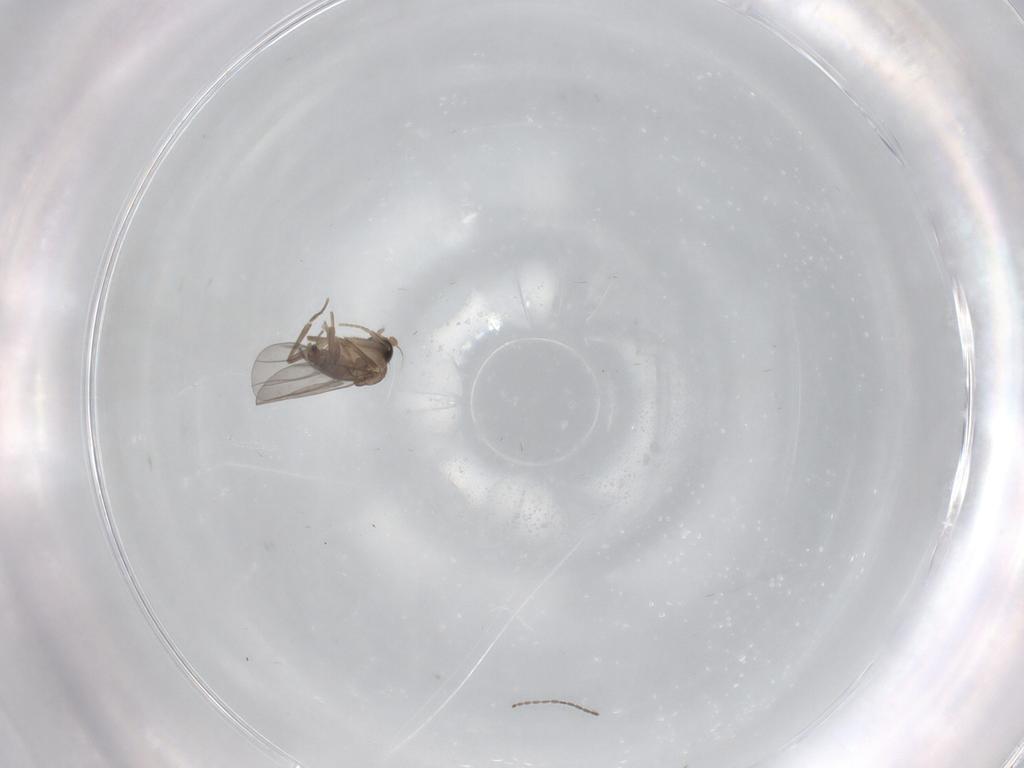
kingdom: Animalia
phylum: Arthropoda
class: Insecta
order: Diptera
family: Cecidomyiidae
